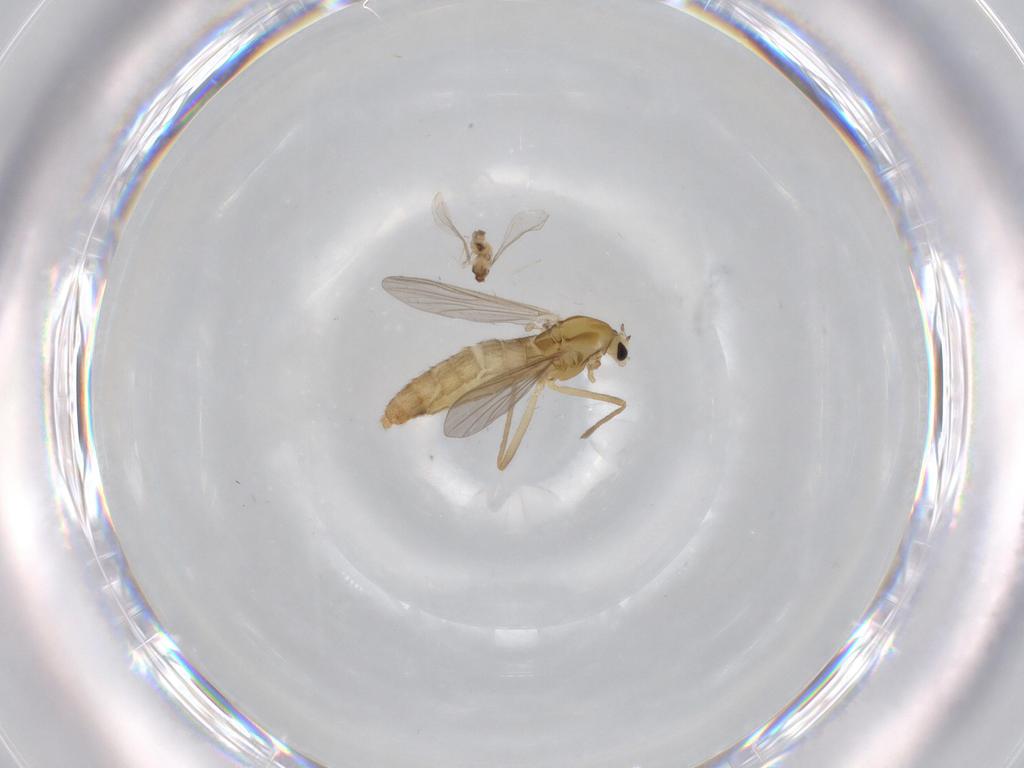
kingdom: Animalia
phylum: Arthropoda
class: Insecta
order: Diptera
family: Cecidomyiidae
